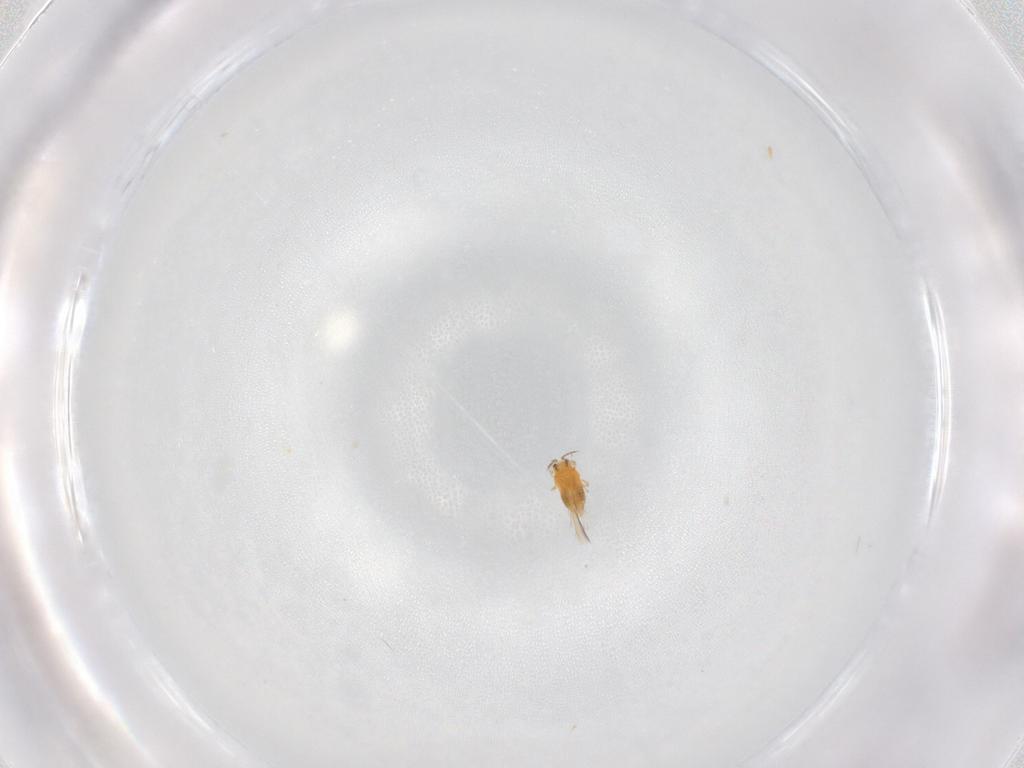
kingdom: Animalia
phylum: Arthropoda
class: Insecta
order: Thysanoptera
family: Thripidae
